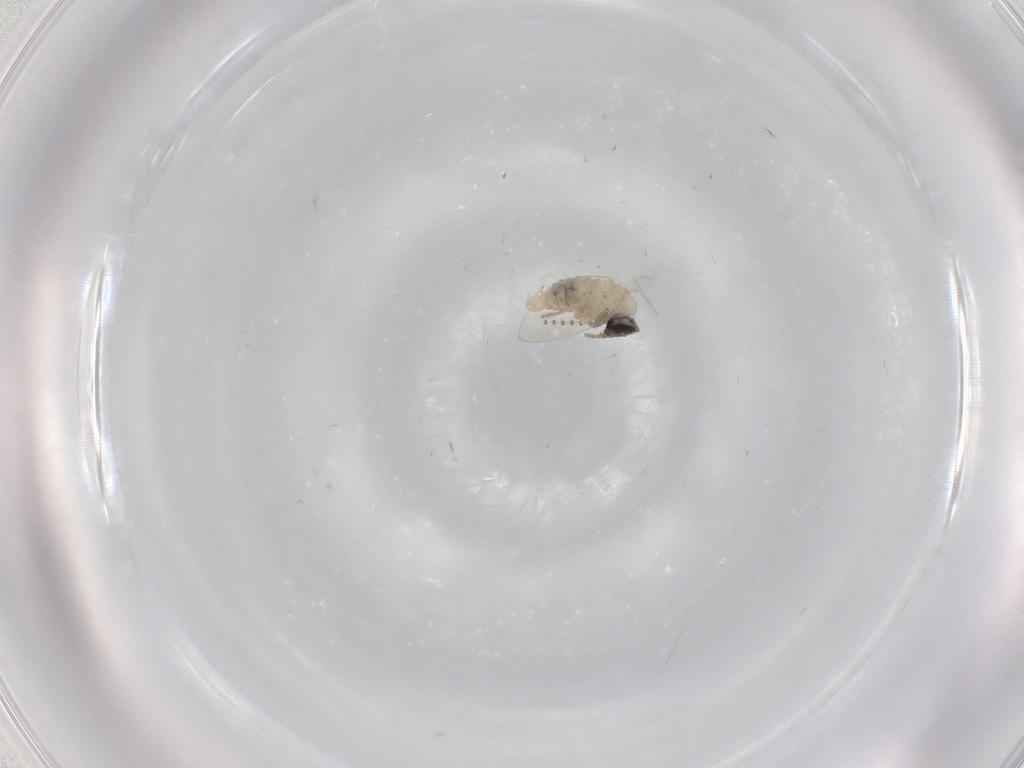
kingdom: Animalia
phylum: Arthropoda
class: Insecta
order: Diptera
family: Psychodidae
